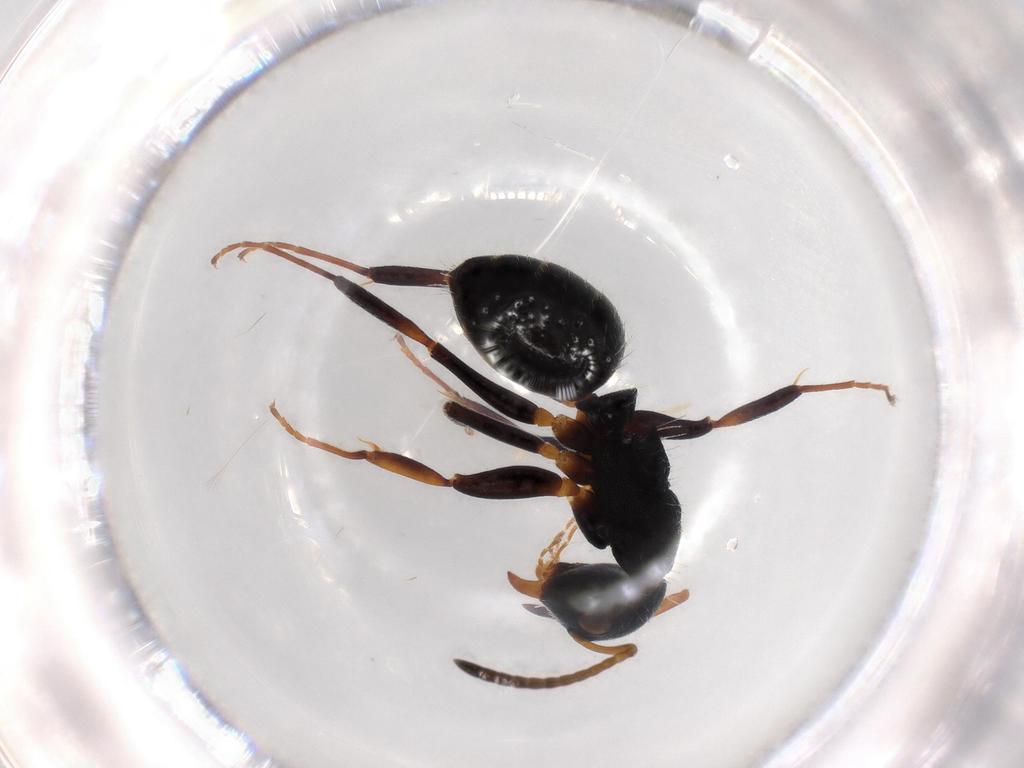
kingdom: Animalia
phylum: Arthropoda
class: Insecta
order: Hymenoptera
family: Formicidae
